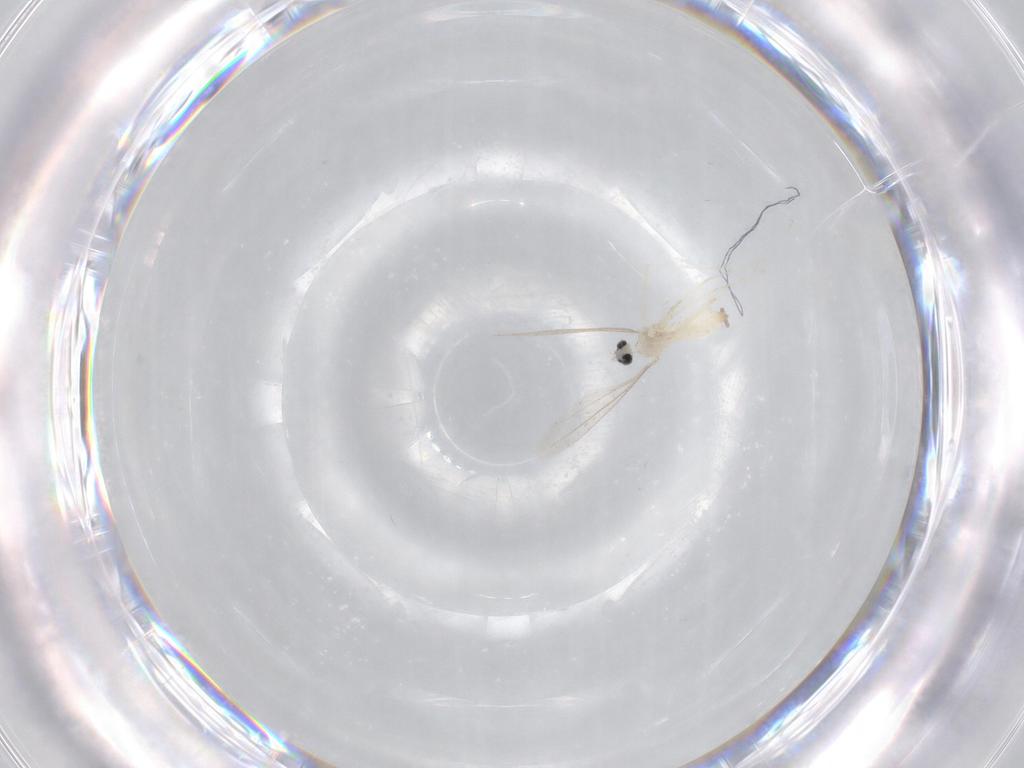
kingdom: Animalia
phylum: Arthropoda
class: Insecta
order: Diptera
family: Cecidomyiidae
